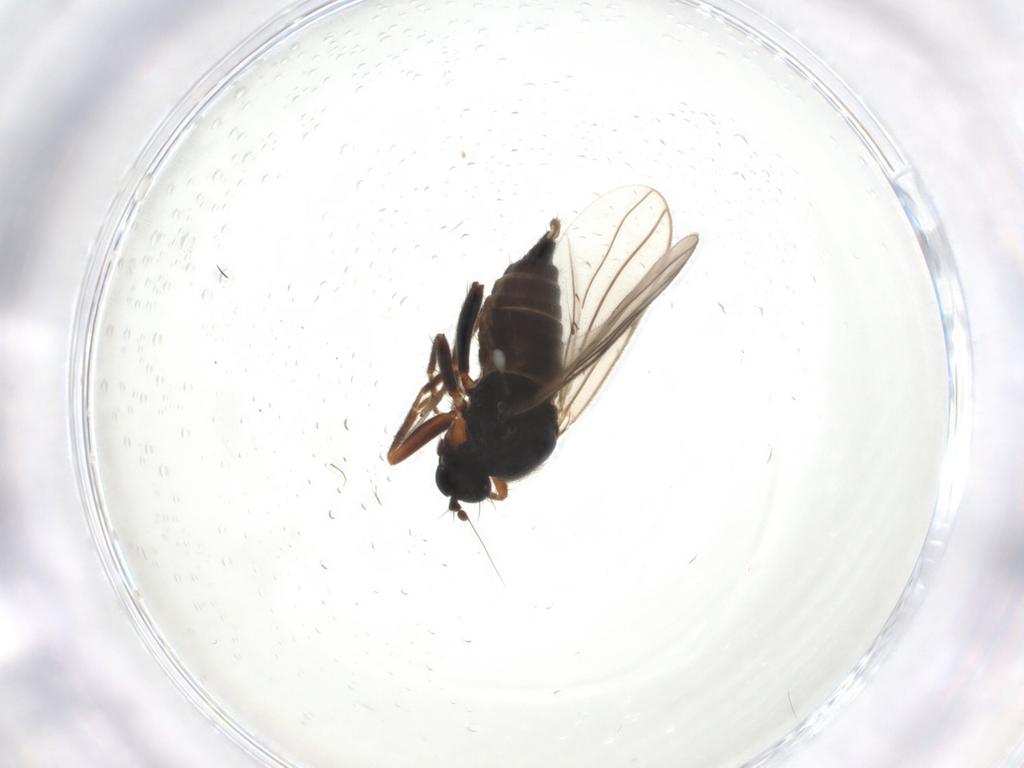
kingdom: Animalia
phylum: Arthropoda
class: Insecta
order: Diptera
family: Hybotidae
